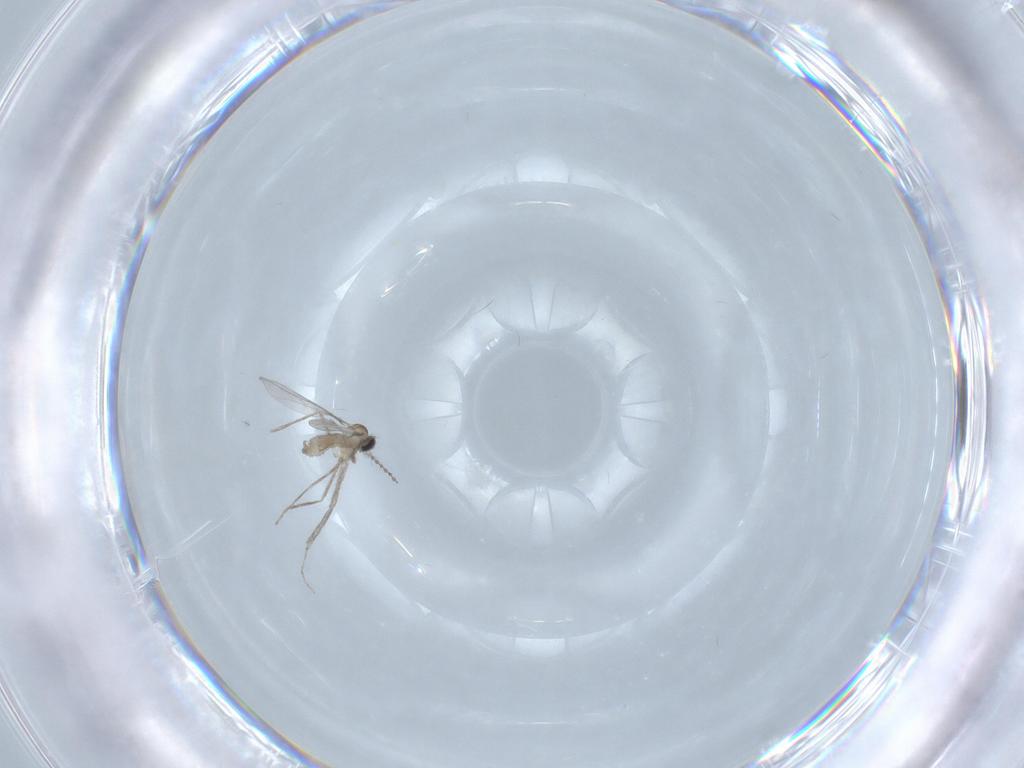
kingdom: Animalia
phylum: Arthropoda
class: Insecta
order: Diptera
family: Cecidomyiidae
